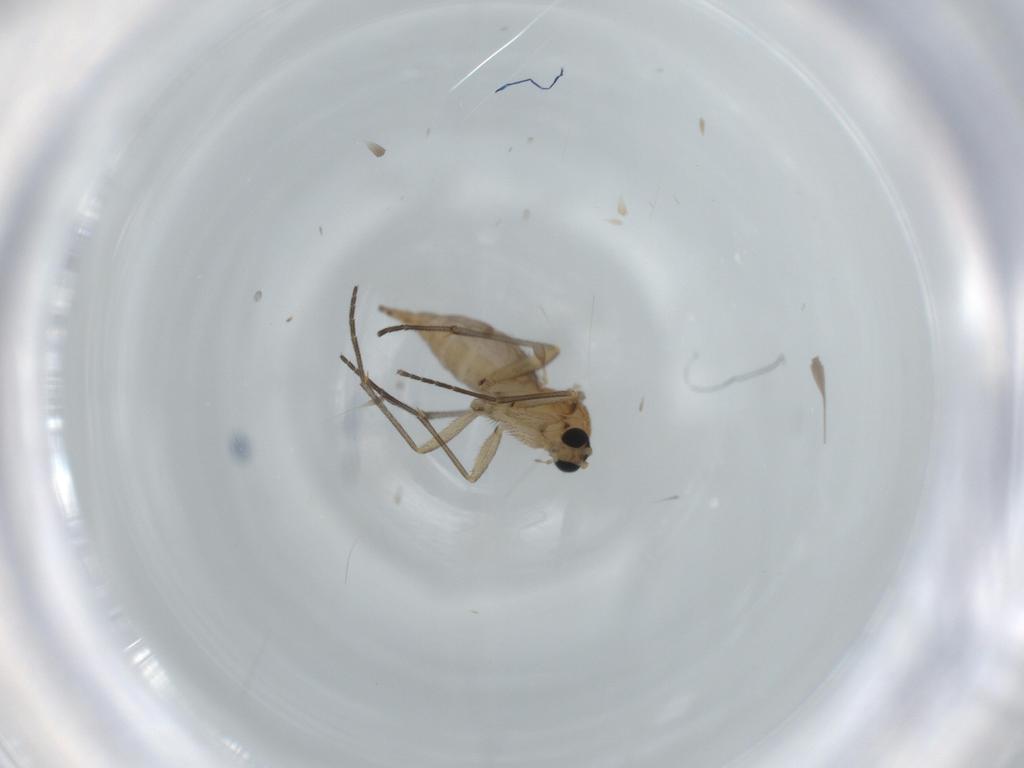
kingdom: Animalia
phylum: Arthropoda
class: Insecta
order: Diptera
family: Sciaridae
